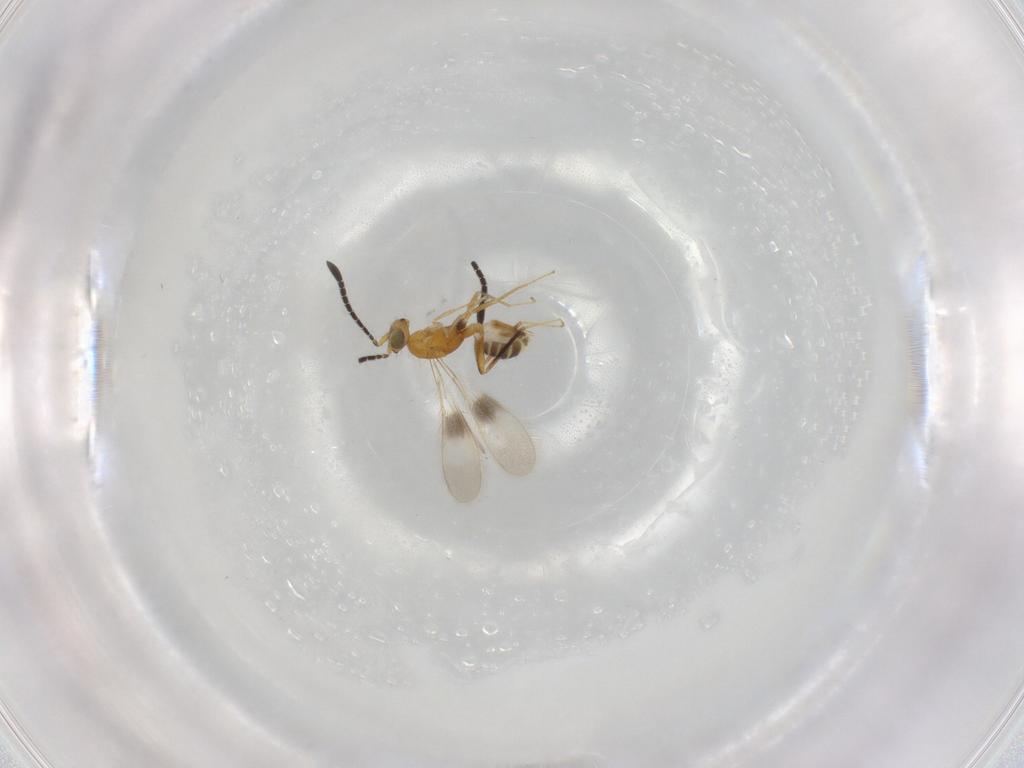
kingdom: Animalia
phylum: Arthropoda
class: Insecta
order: Hymenoptera
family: Mymaridae
